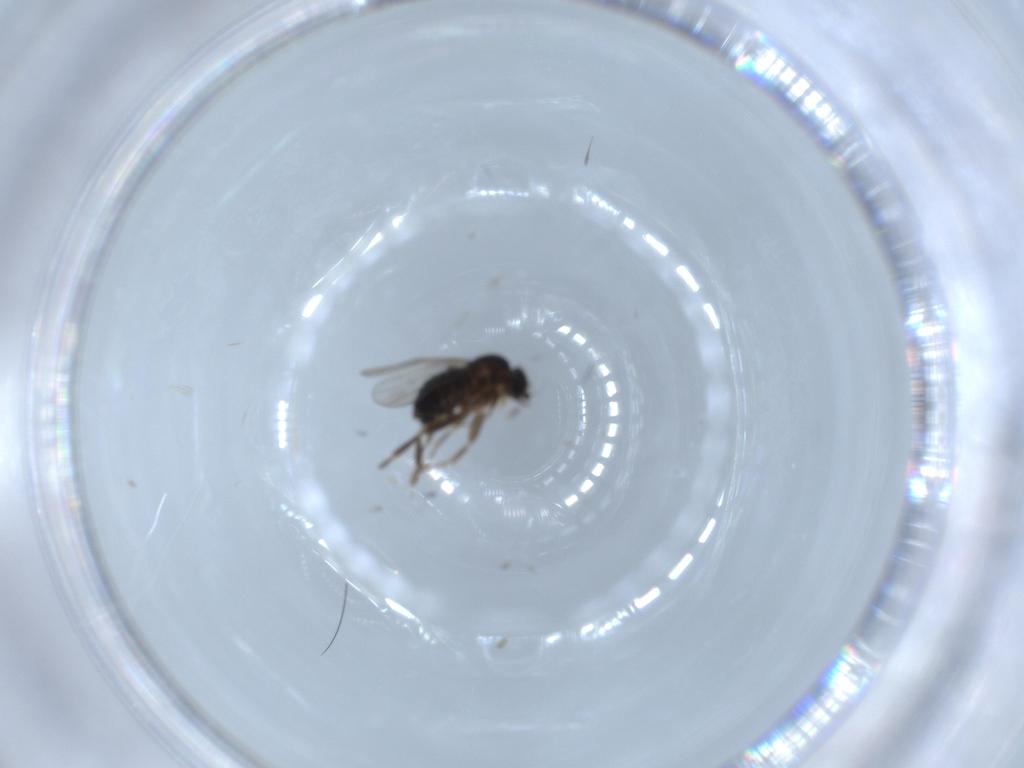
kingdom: Animalia
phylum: Arthropoda
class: Insecta
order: Diptera
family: Phoridae
